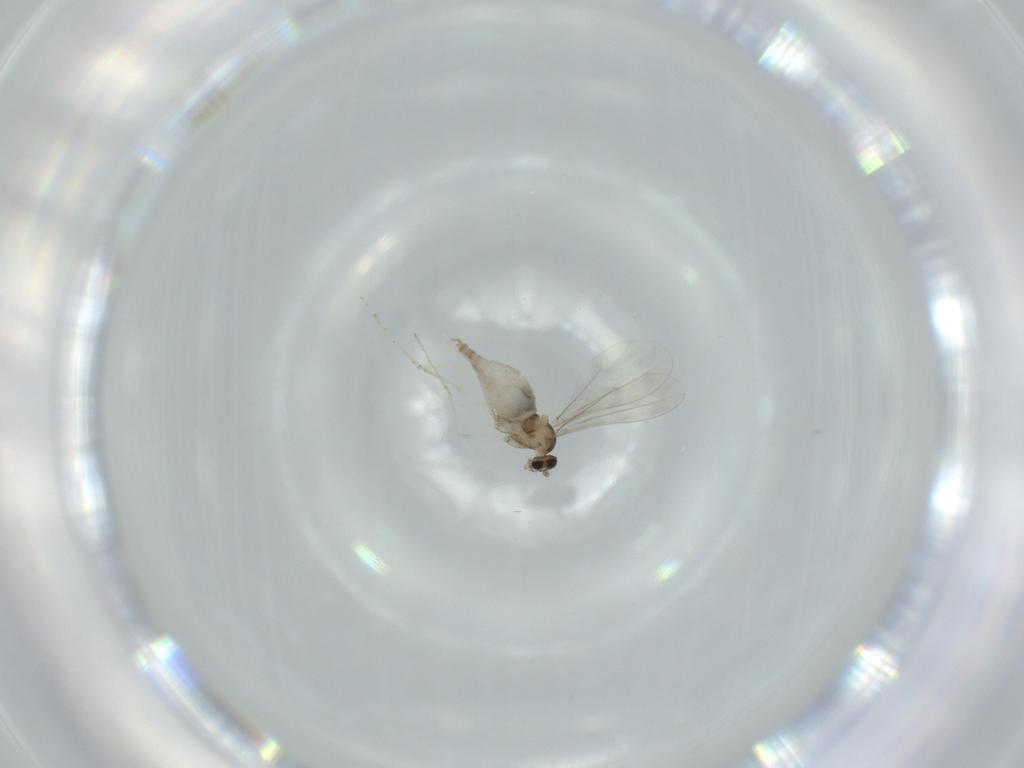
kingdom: Animalia
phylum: Arthropoda
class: Insecta
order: Diptera
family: Cecidomyiidae
